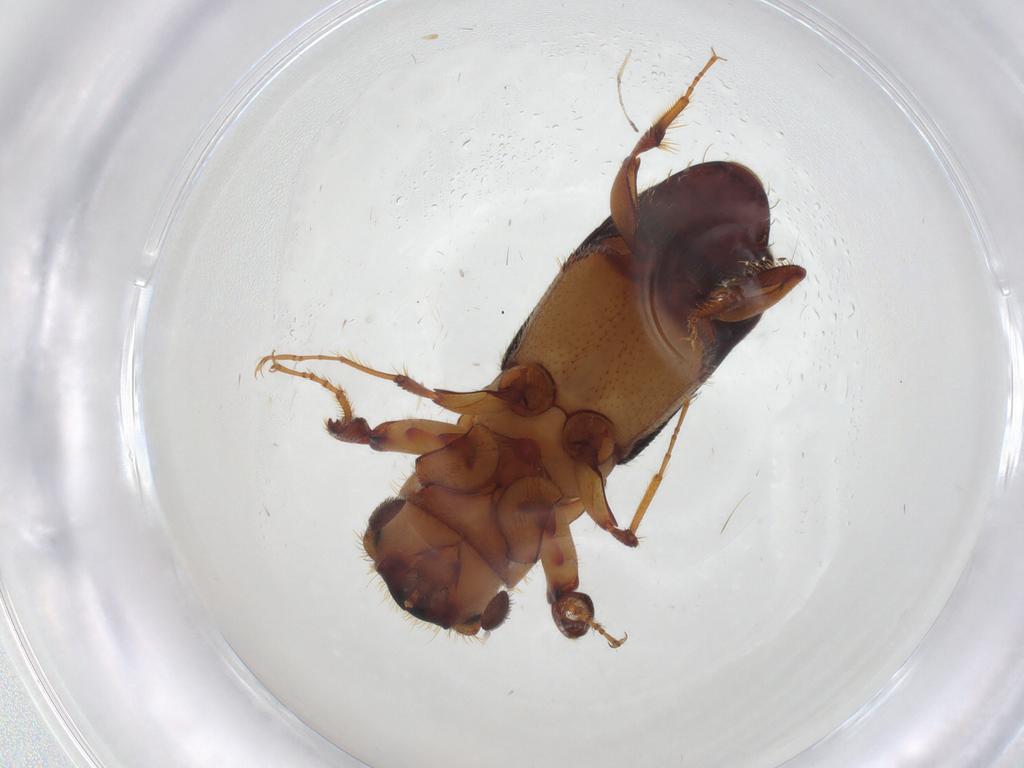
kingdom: Animalia
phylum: Arthropoda
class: Insecta
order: Coleoptera
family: Curculionidae
